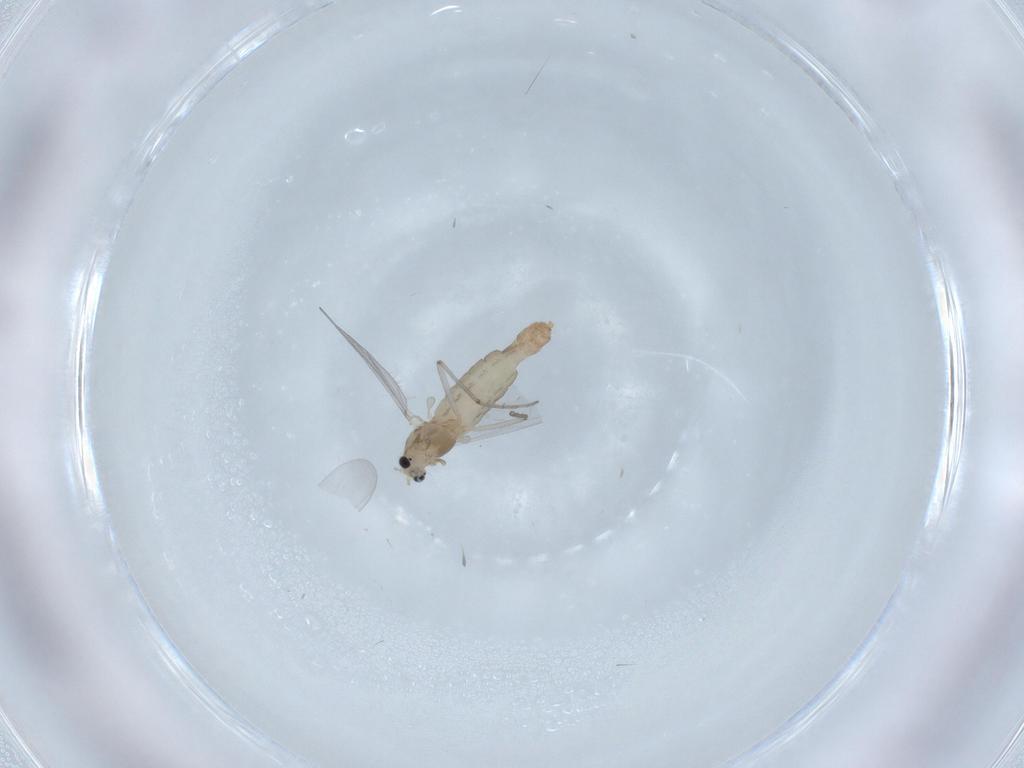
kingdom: Animalia
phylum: Arthropoda
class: Insecta
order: Diptera
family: Chironomidae
